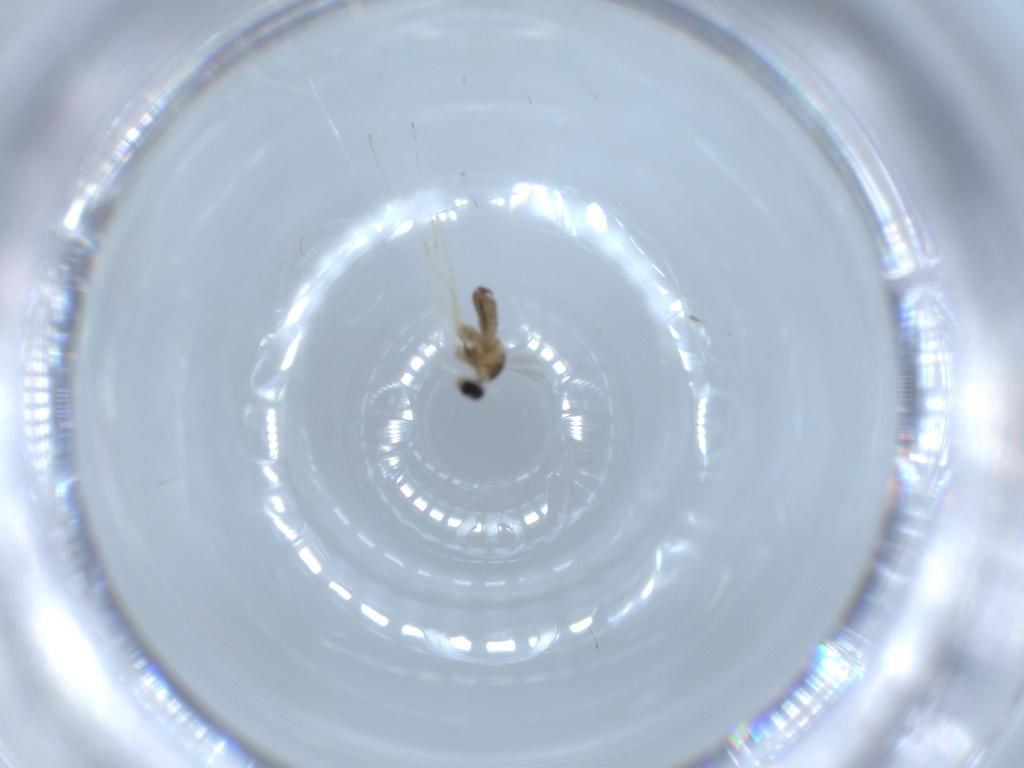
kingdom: Animalia
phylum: Arthropoda
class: Insecta
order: Diptera
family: Cecidomyiidae
